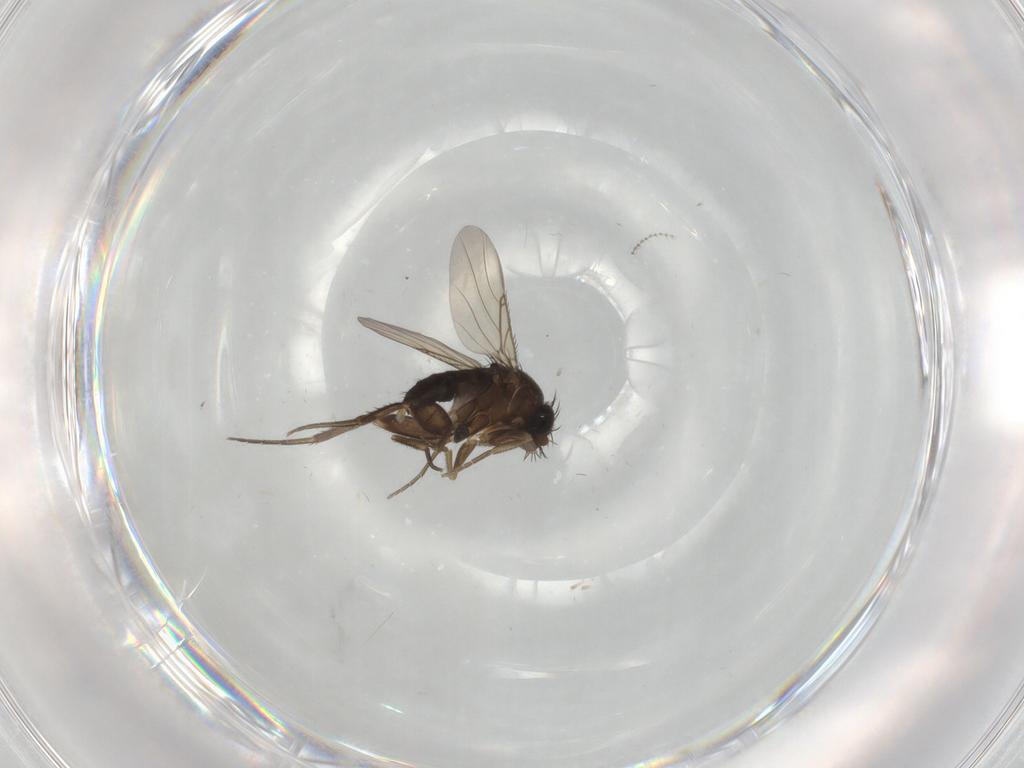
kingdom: Animalia
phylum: Arthropoda
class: Insecta
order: Diptera
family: Phoridae
